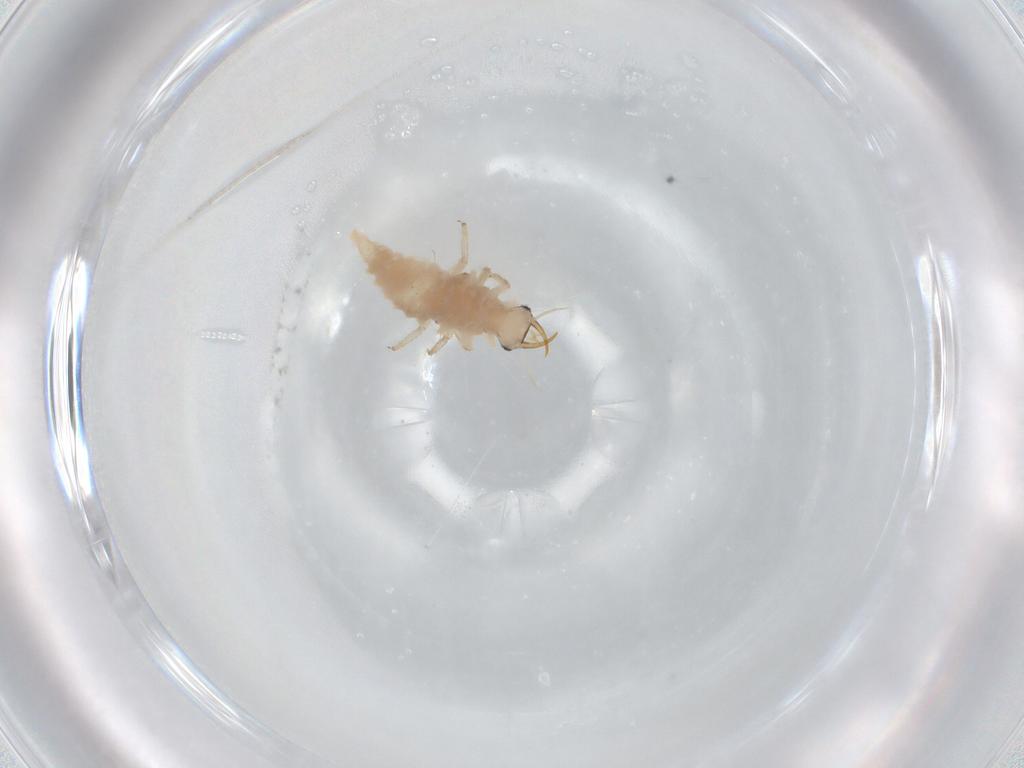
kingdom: Animalia
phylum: Arthropoda
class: Insecta
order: Neuroptera
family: Chrysopidae
